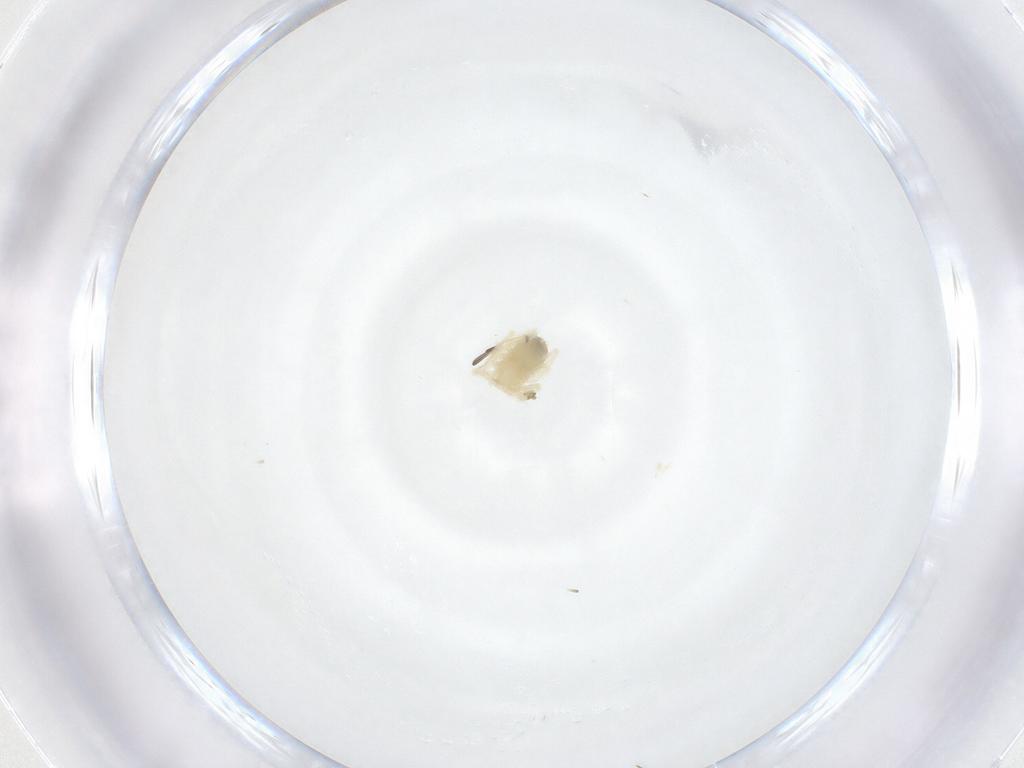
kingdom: Animalia
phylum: Arthropoda
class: Arachnida
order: Trombidiformes
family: Anystidae
